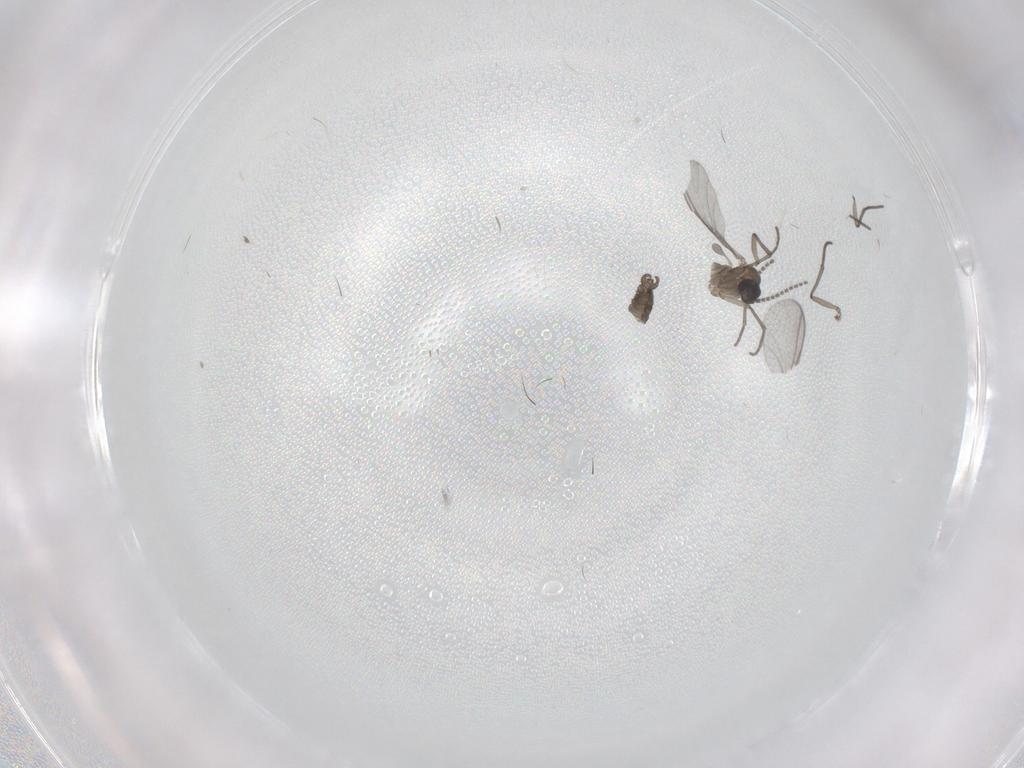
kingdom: Animalia
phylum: Arthropoda
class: Insecta
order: Diptera
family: Sciaridae
